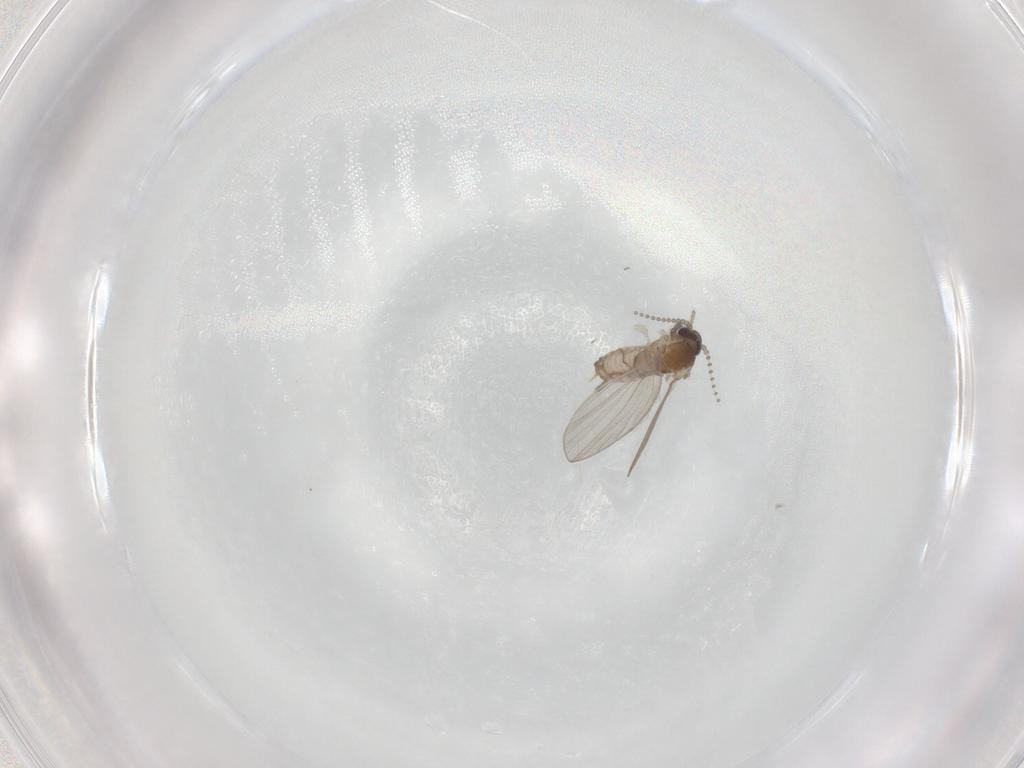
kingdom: Animalia
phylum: Arthropoda
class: Insecta
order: Diptera
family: Psychodidae
